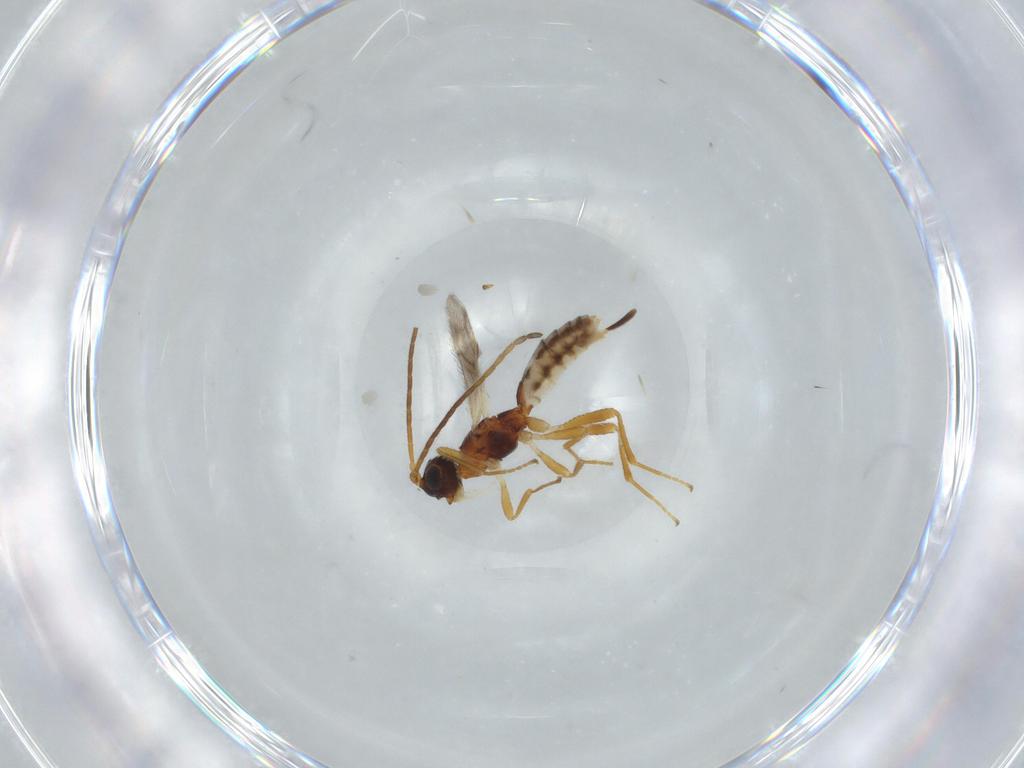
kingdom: Animalia
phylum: Arthropoda
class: Insecta
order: Hymenoptera
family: Braconidae
